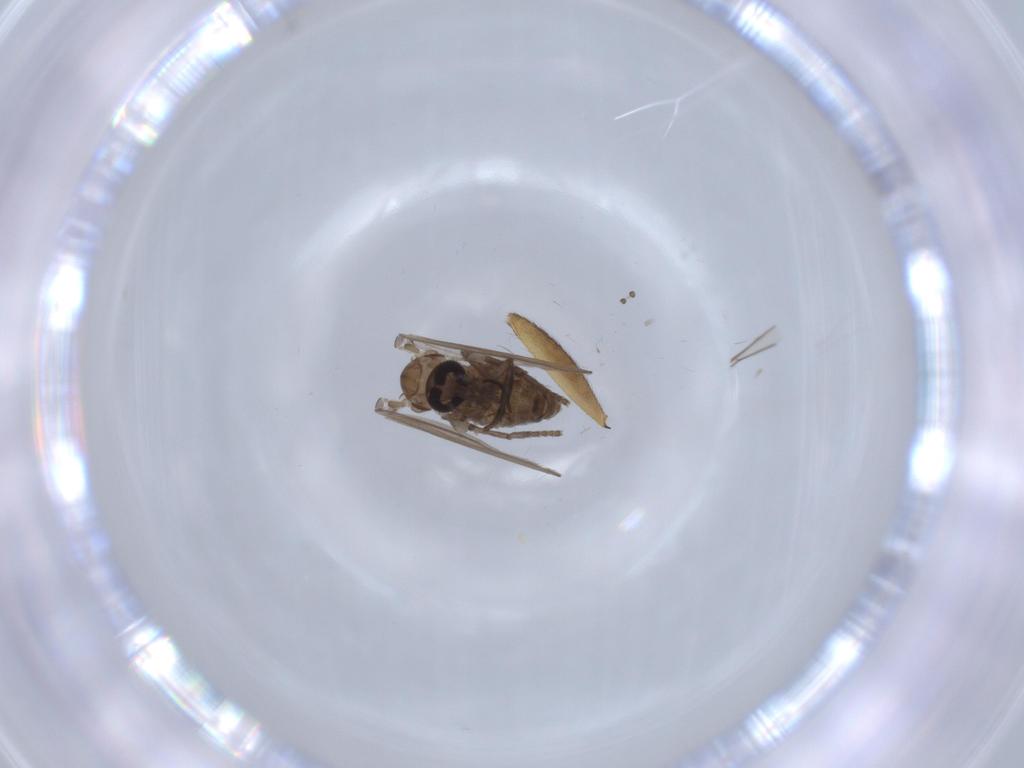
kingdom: Animalia
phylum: Arthropoda
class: Insecta
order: Diptera
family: Psychodidae
